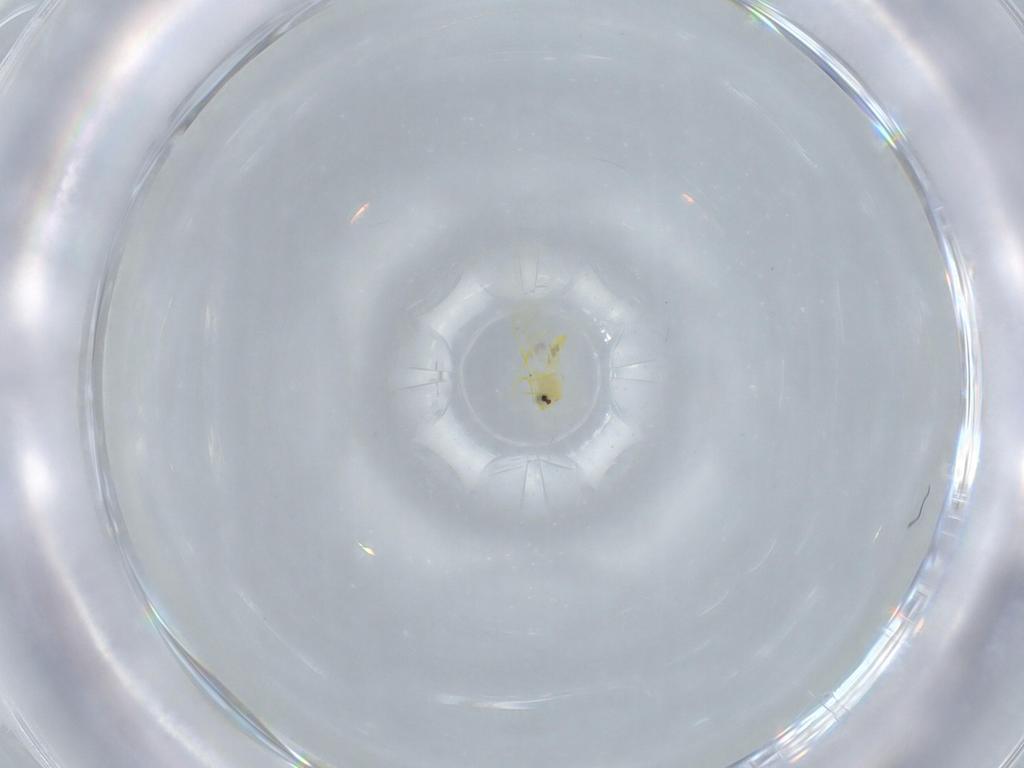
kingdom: Animalia
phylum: Arthropoda
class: Insecta
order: Hemiptera
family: Aleyrodidae
